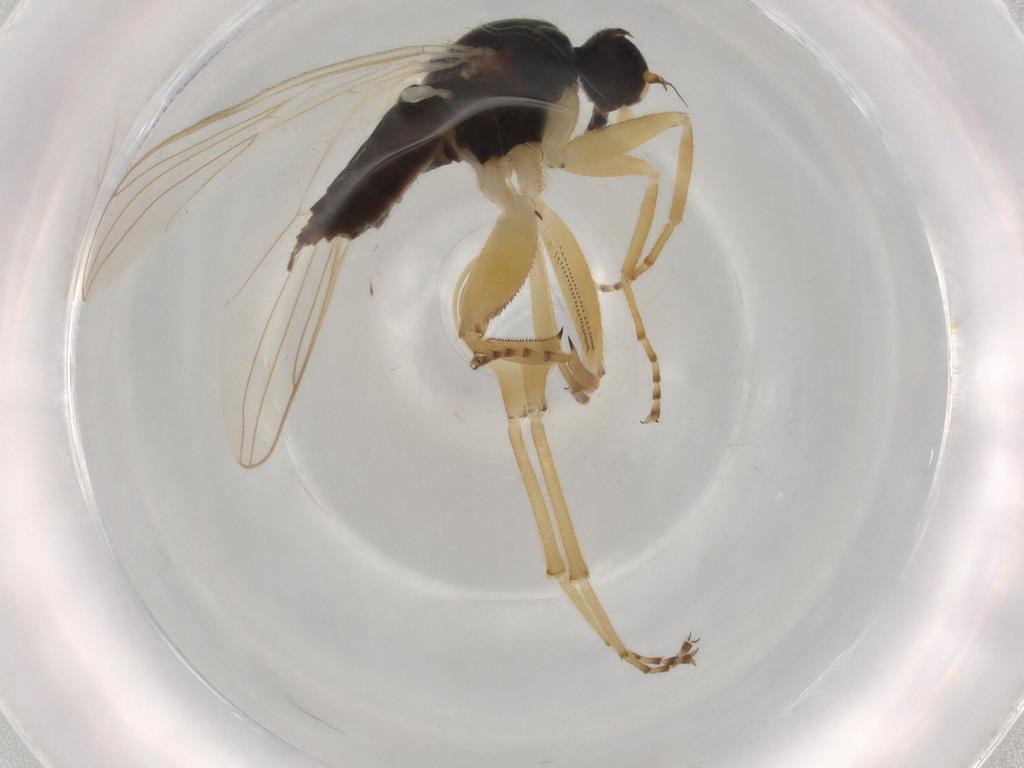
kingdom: Animalia
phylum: Arthropoda
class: Insecta
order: Diptera
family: Hybotidae
